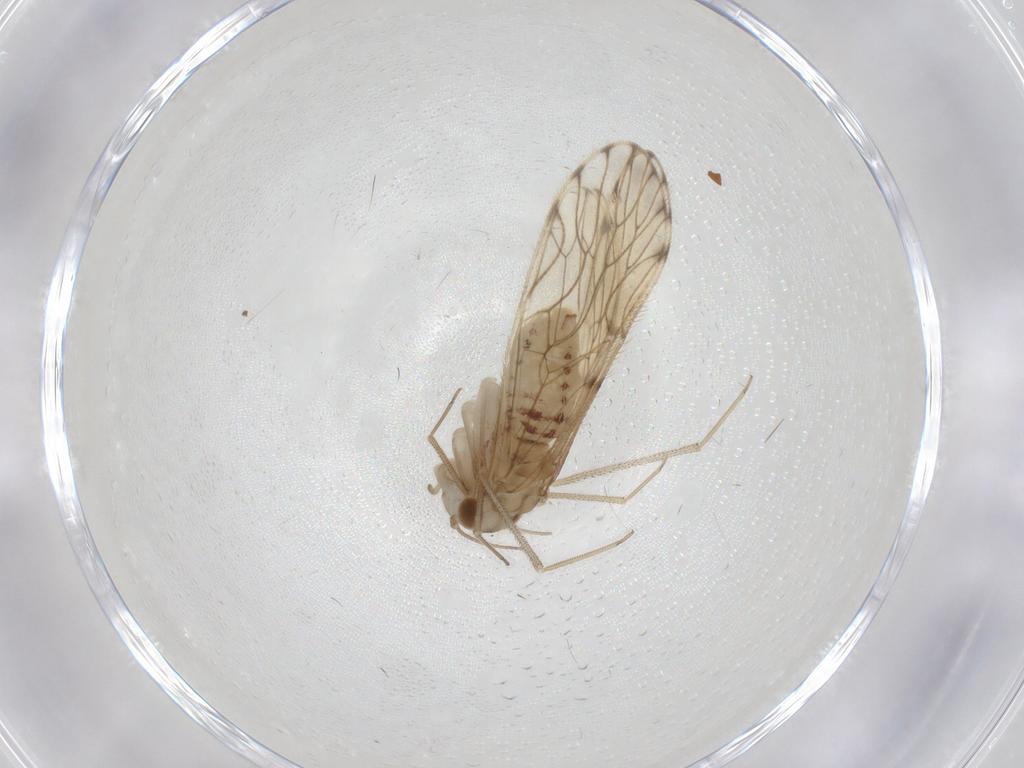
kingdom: Animalia
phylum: Arthropoda
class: Insecta
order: Psocodea
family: Epipsocidae
